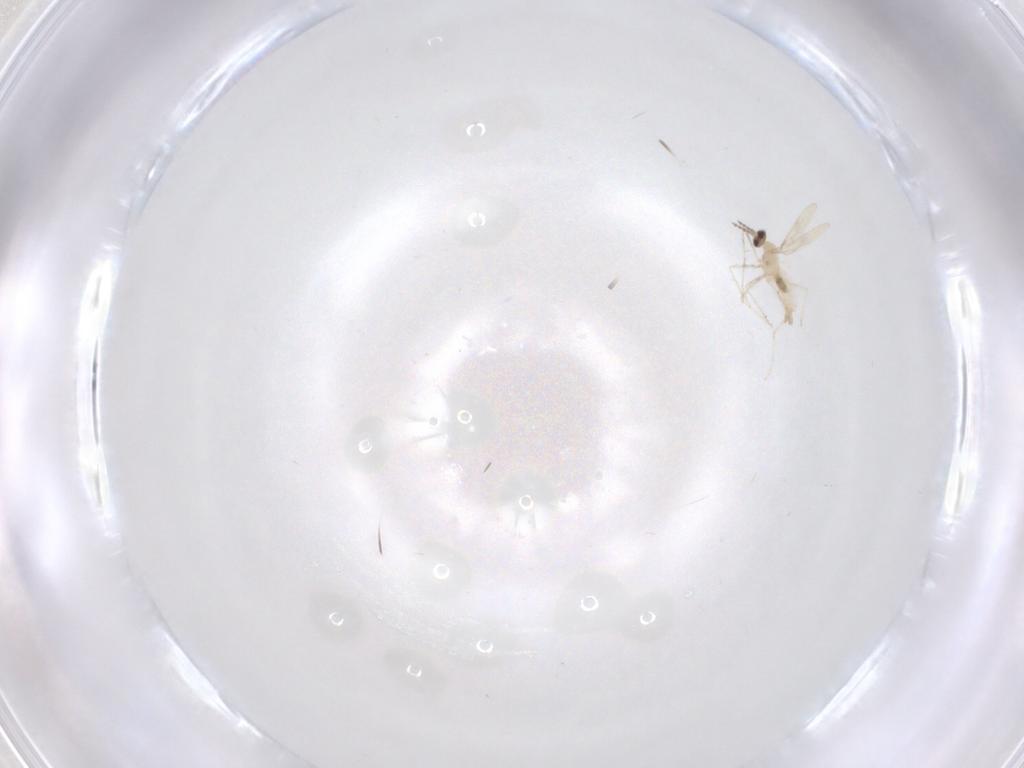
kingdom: Animalia
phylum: Arthropoda
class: Insecta
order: Diptera
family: Cecidomyiidae
